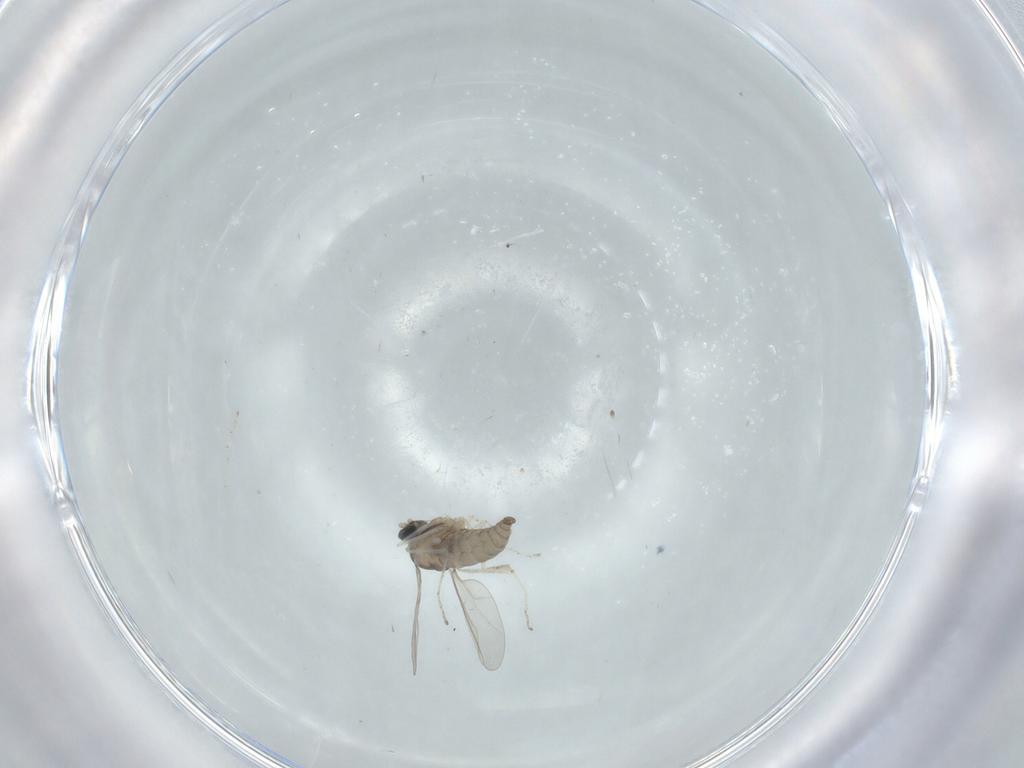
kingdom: Animalia
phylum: Arthropoda
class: Insecta
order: Diptera
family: Cecidomyiidae
